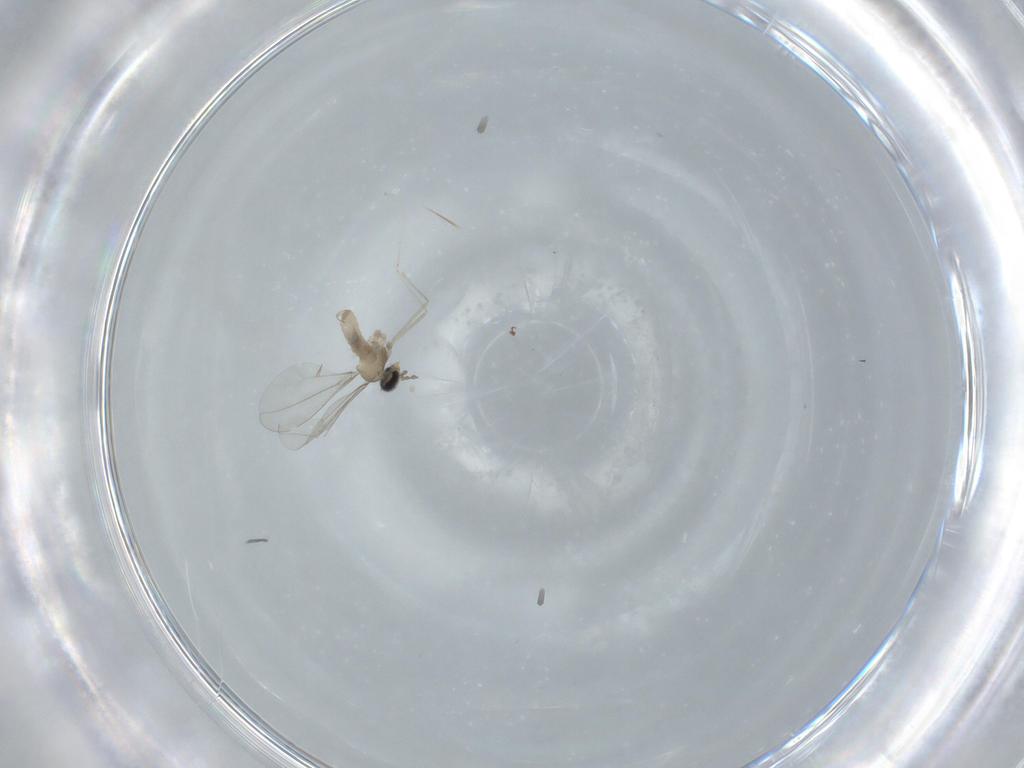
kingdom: Animalia
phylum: Arthropoda
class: Insecta
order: Diptera
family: Cecidomyiidae
